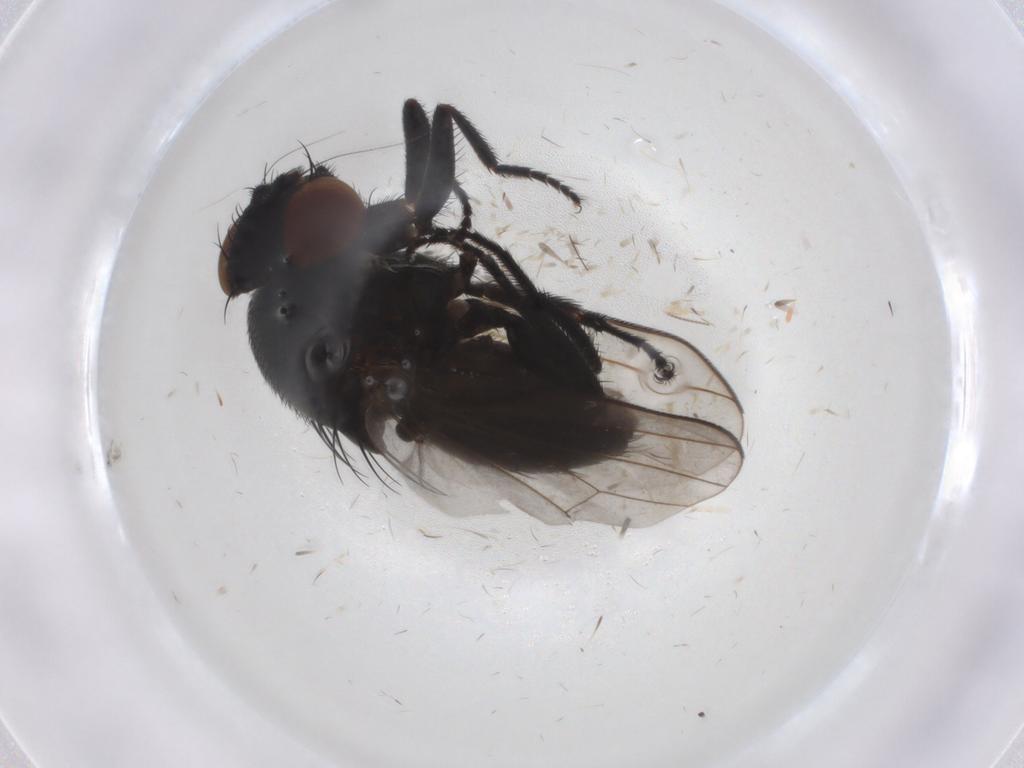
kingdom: Animalia
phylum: Arthropoda
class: Insecta
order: Diptera
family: Milichiidae
